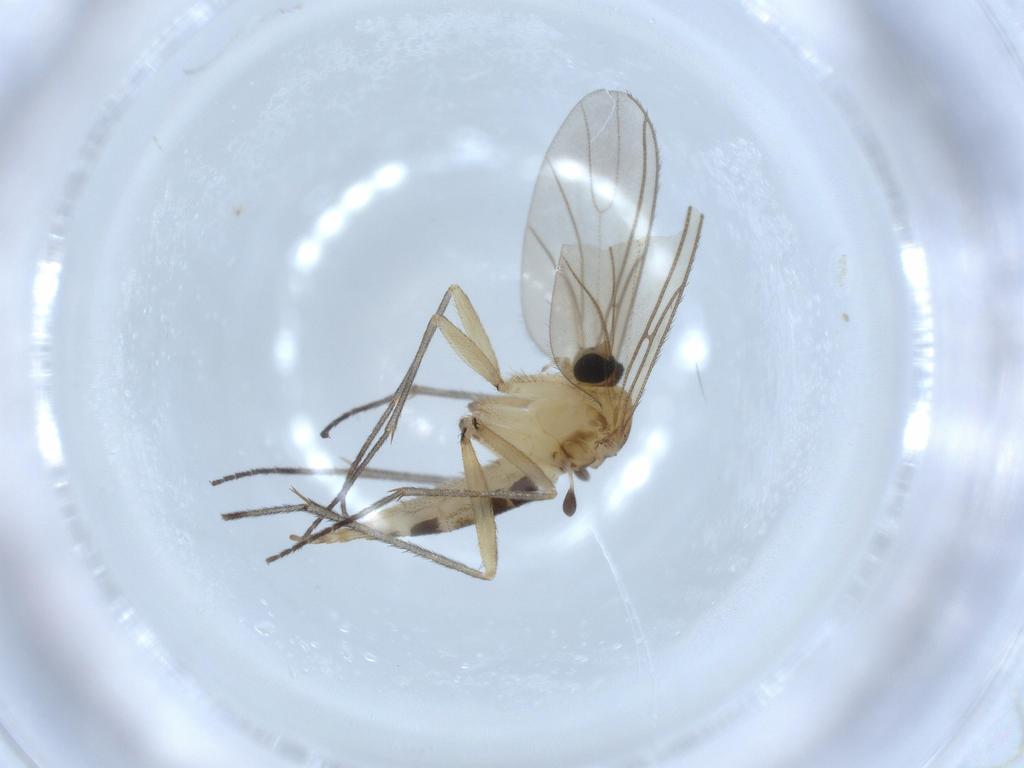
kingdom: Animalia
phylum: Arthropoda
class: Insecta
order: Diptera
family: Sciaridae
